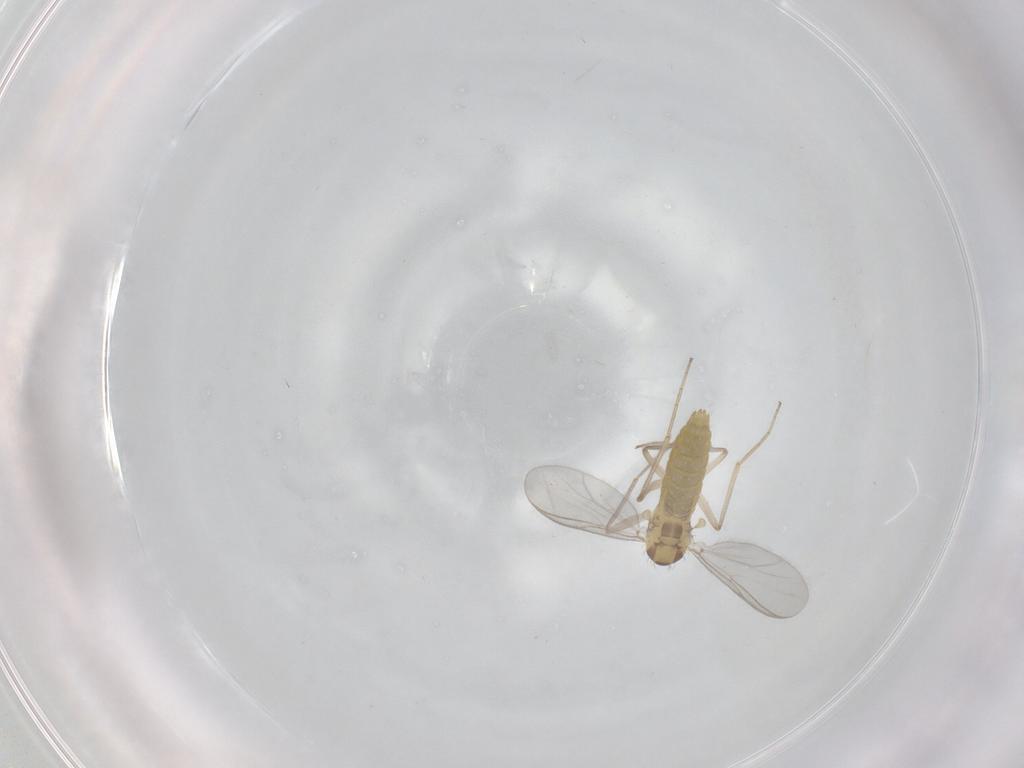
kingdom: Animalia
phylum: Arthropoda
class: Insecta
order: Diptera
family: Chironomidae
